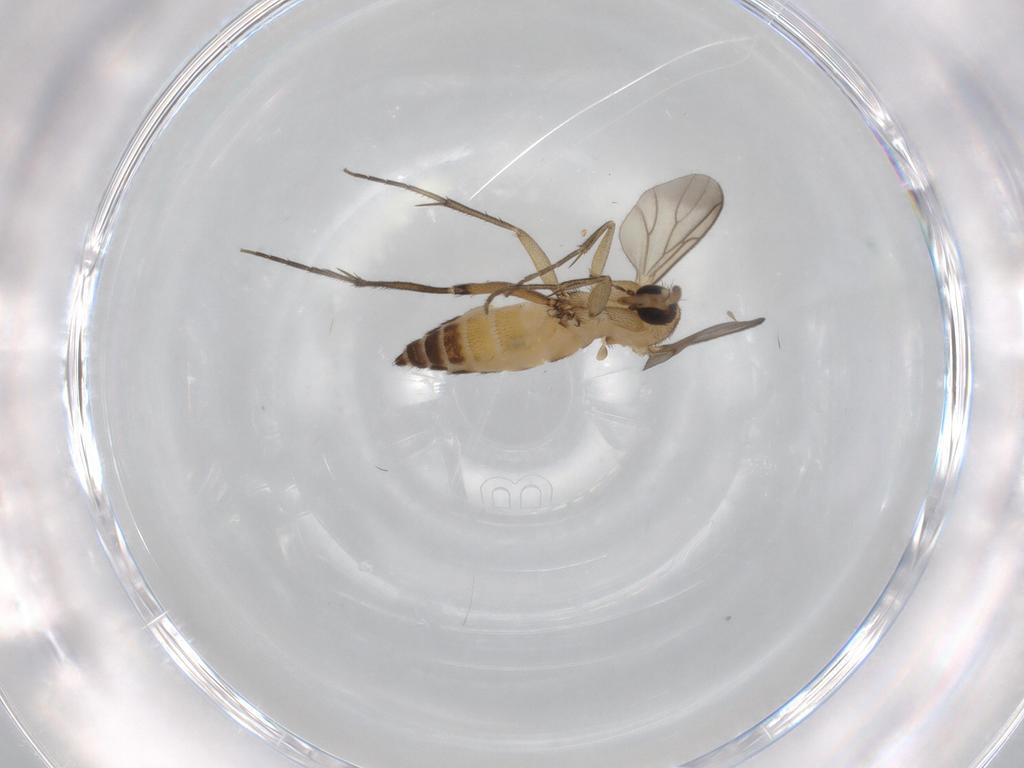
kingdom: Animalia
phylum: Arthropoda
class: Insecta
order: Diptera
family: Mycetophilidae
